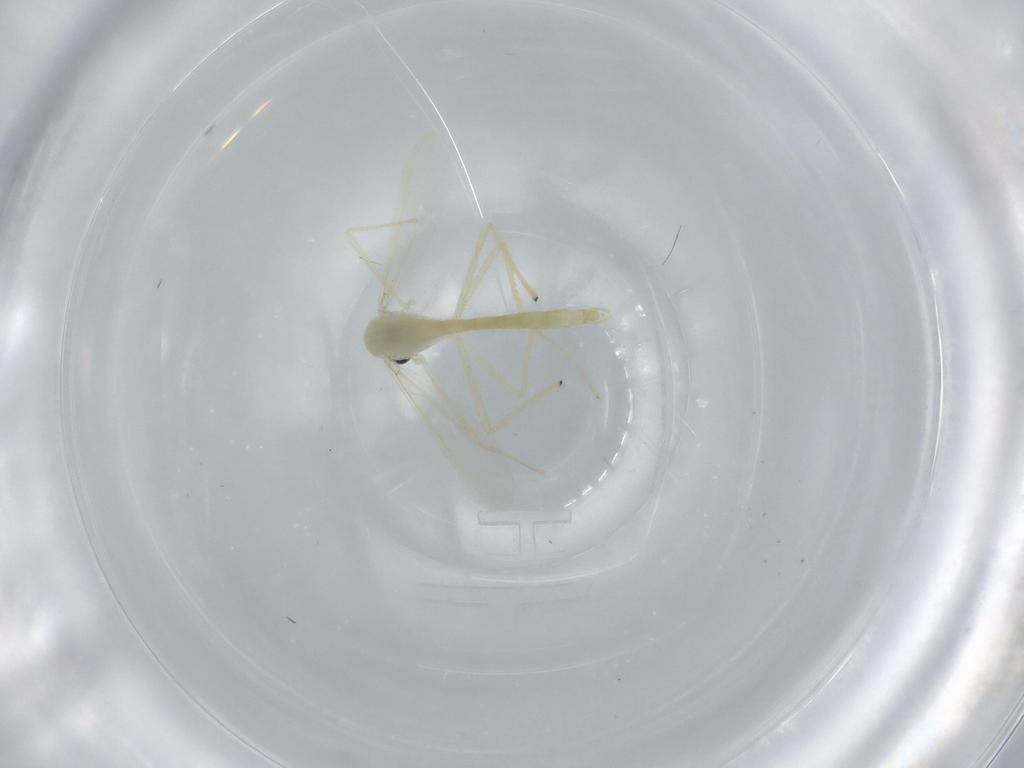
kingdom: Animalia
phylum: Arthropoda
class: Insecta
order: Diptera
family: Chironomidae
